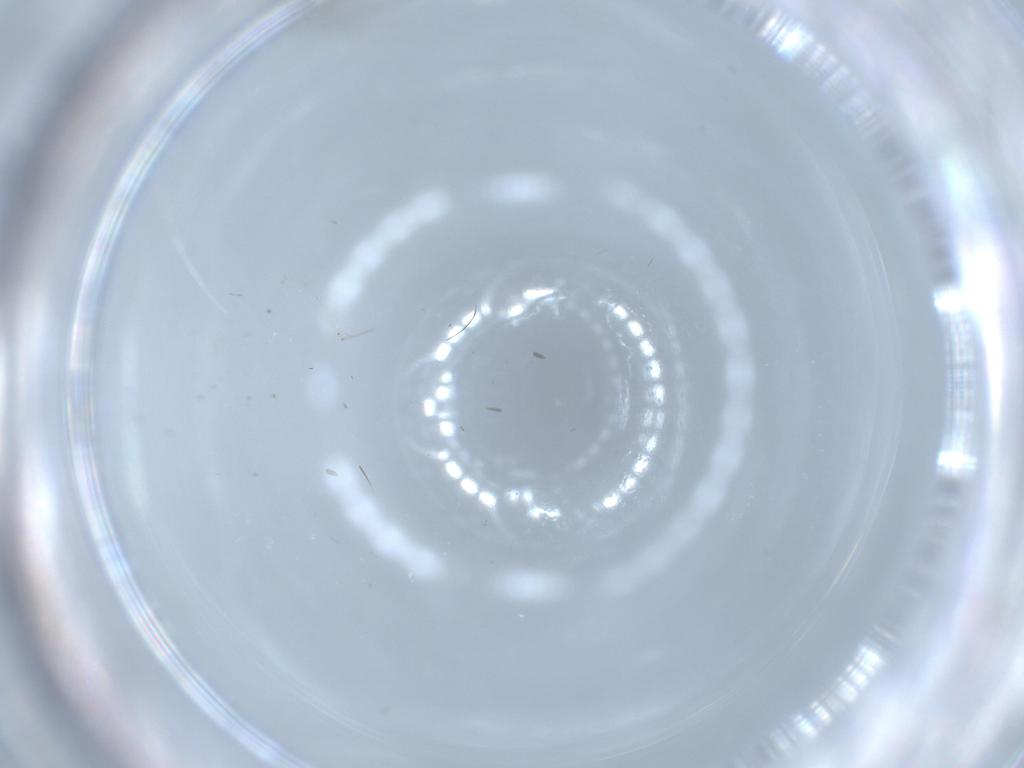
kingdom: Animalia
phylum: Arthropoda
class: Insecta
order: Diptera
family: Cecidomyiidae
